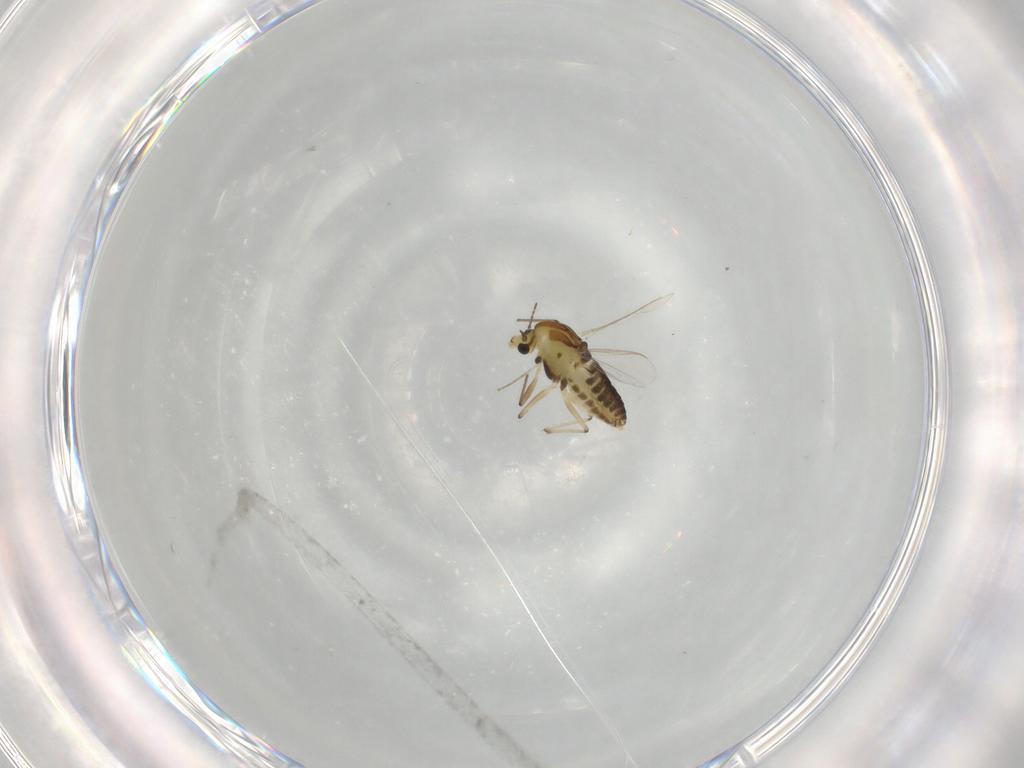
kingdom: Animalia
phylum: Arthropoda
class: Insecta
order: Diptera
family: Chironomidae
